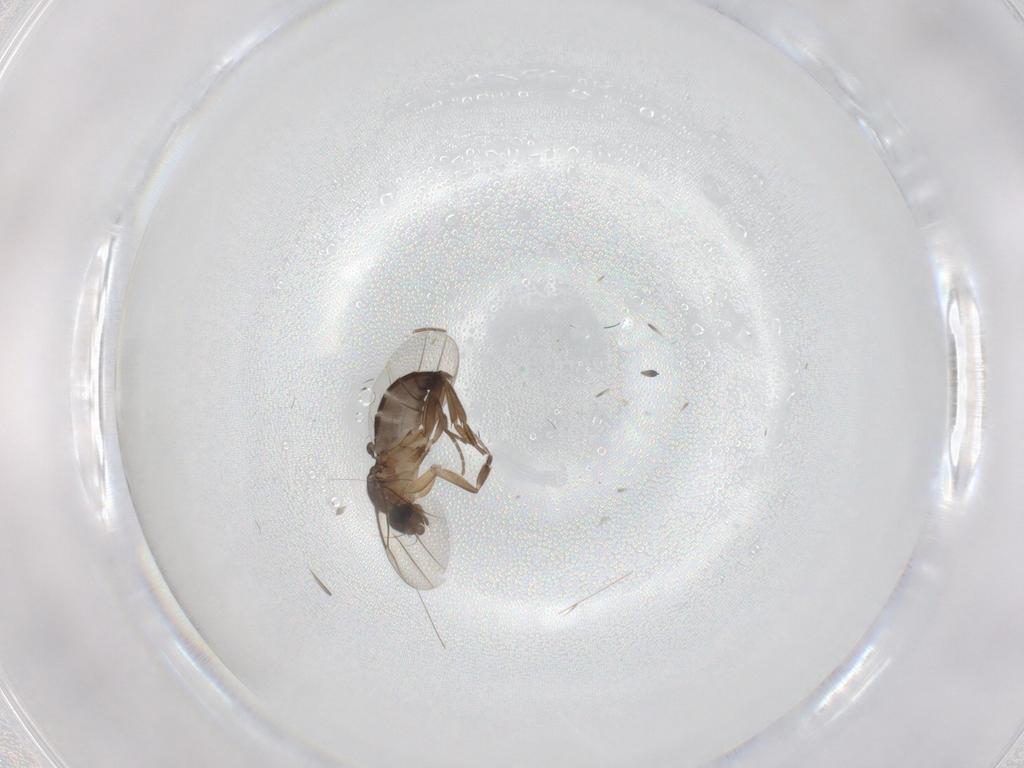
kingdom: Animalia
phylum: Arthropoda
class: Insecta
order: Diptera
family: Phoridae
